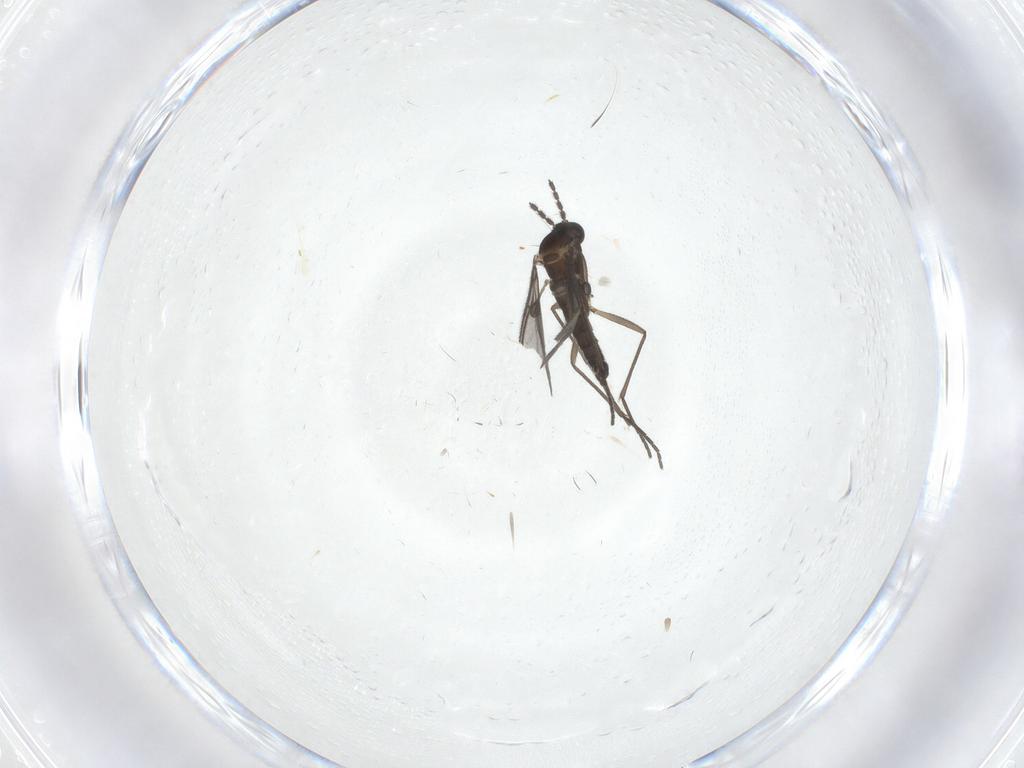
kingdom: Animalia
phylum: Arthropoda
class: Insecta
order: Diptera
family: Sciaridae
